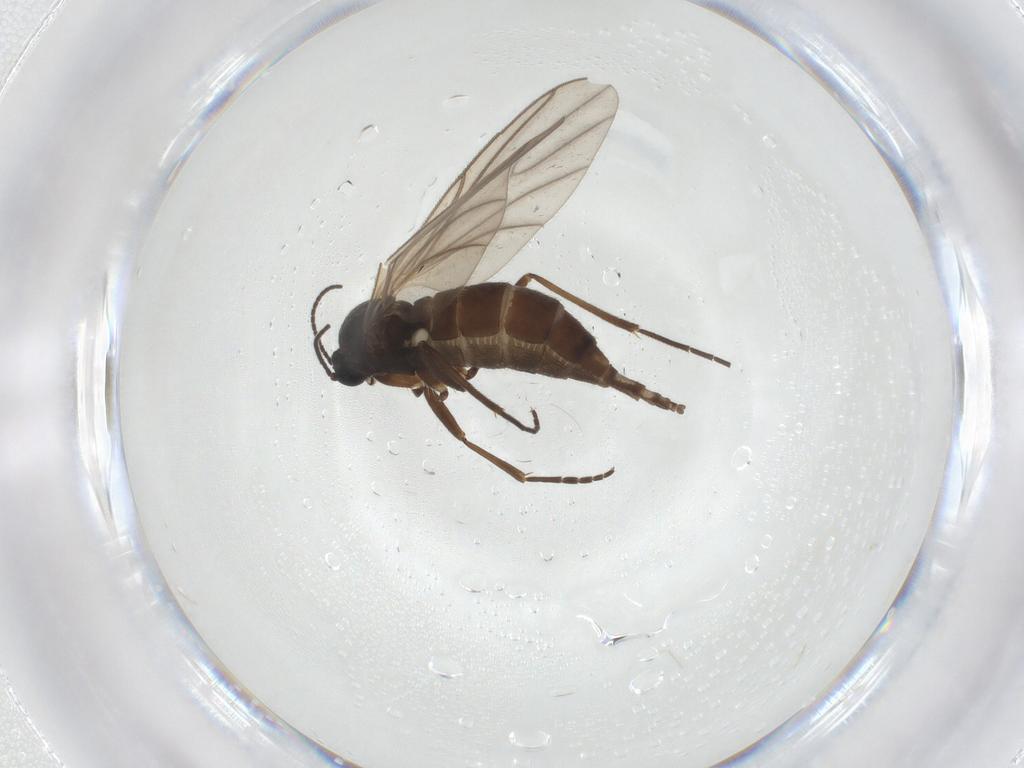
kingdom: Animalia
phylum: Arthropoda
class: Insecta
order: Diptera
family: Sciaridae
